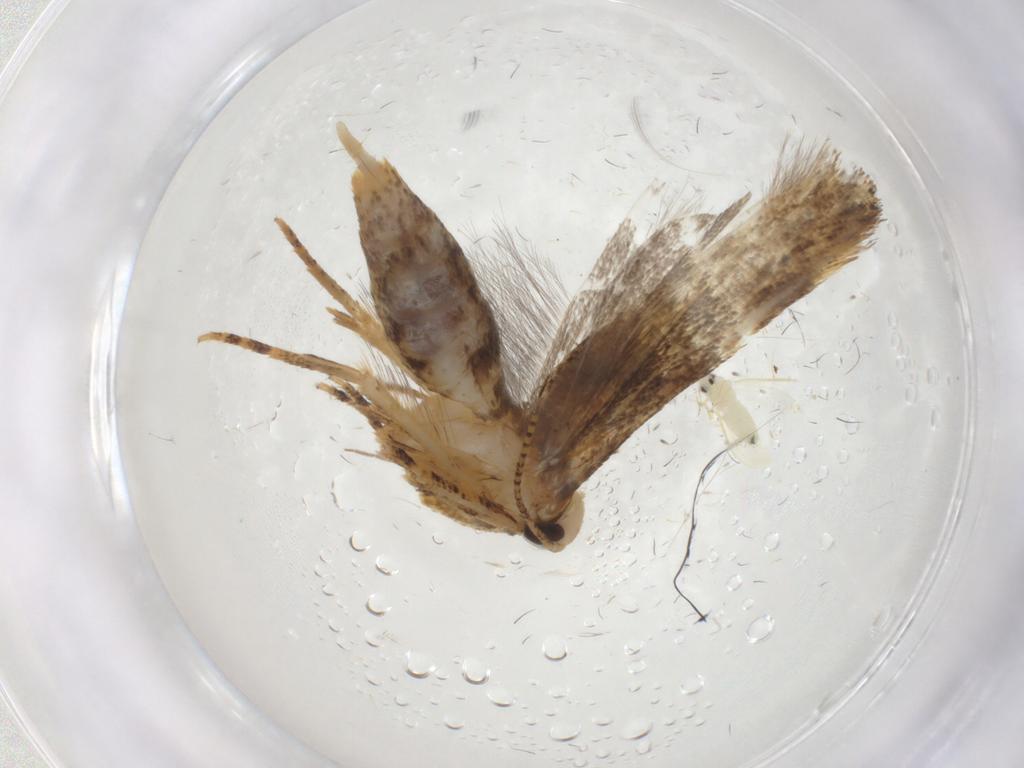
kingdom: Animalia
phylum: Arthropoda
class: Insecta
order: Lepidoptera
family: Gelechiidae
